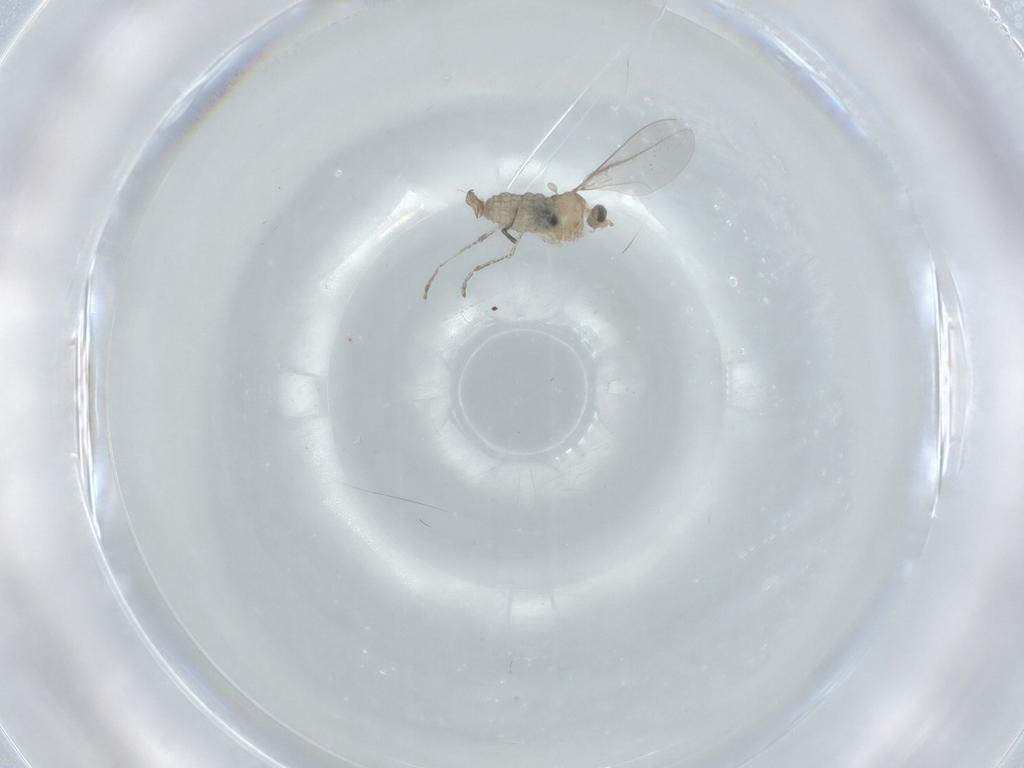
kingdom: Animalia
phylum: Arthropoda
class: Insecta
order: Diptera
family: Cecidomyiidae
